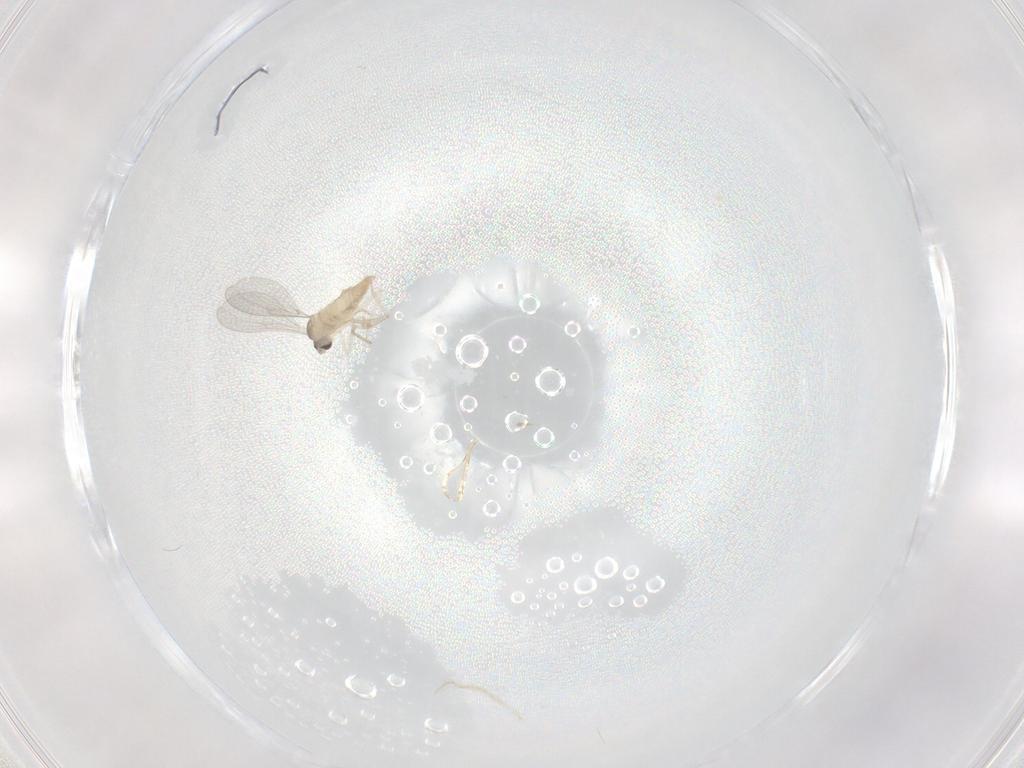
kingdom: Animalia
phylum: Arthropoda
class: Insecta
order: Diptera
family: Cecidomyiidae
